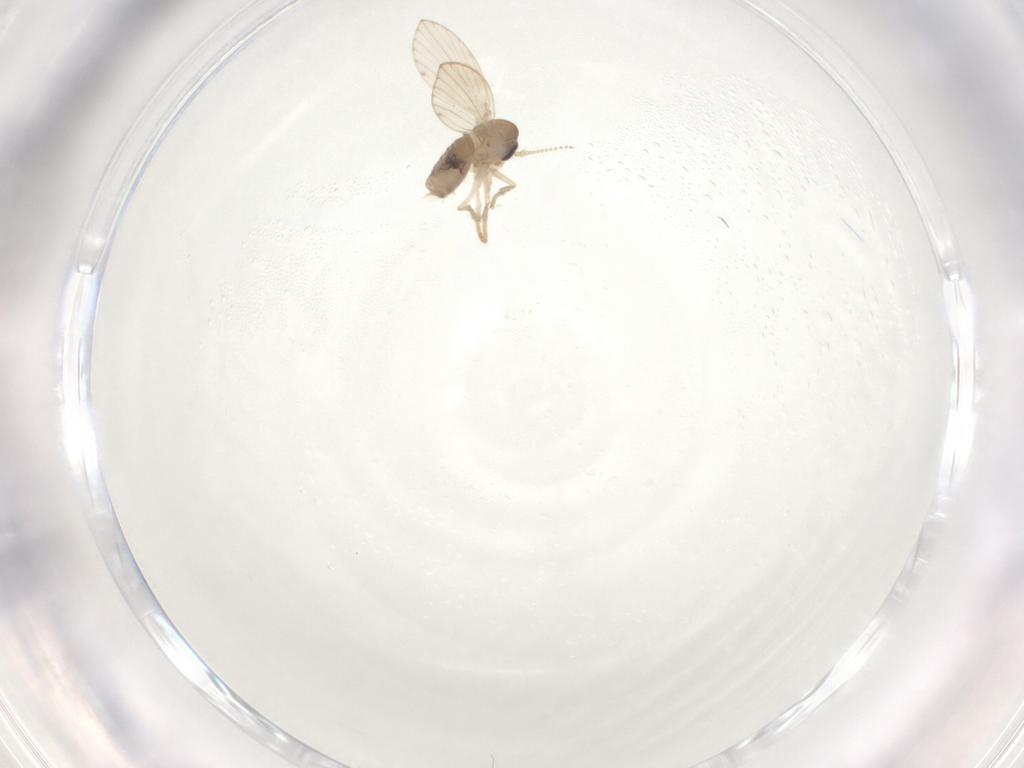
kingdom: Animalia
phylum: Arthropoda
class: Insecta
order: Diptera
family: Psychodidae
